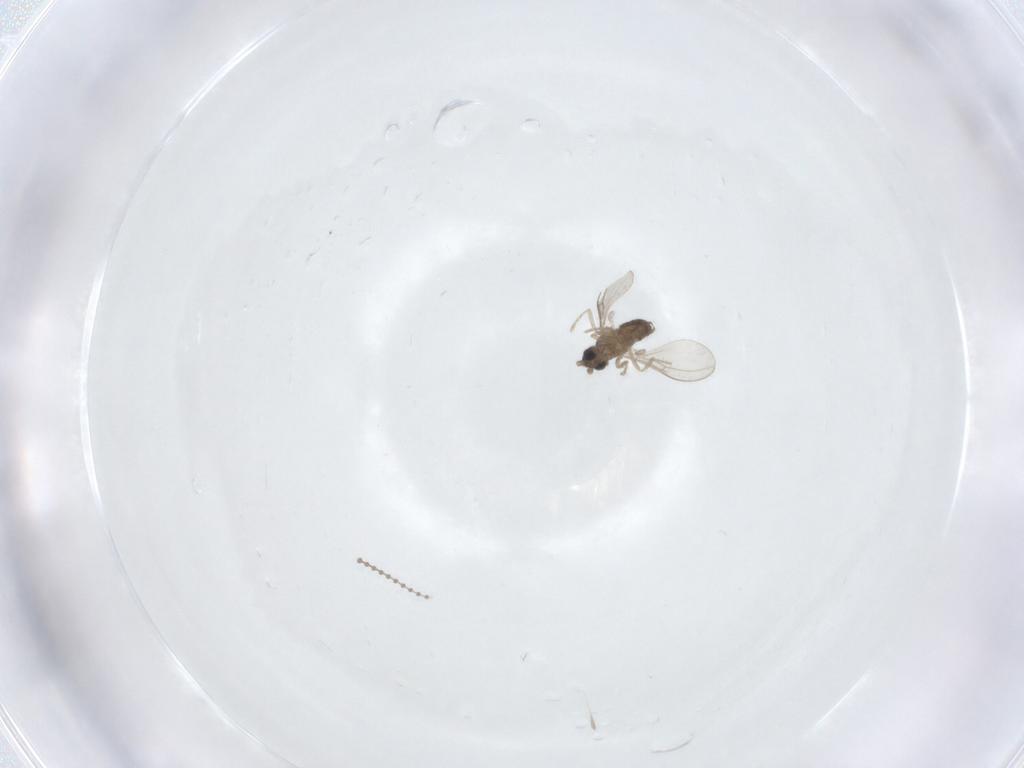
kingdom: Animalia
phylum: Arthropoda
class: Insecta
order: Diptera
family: Cecidomyiidae
